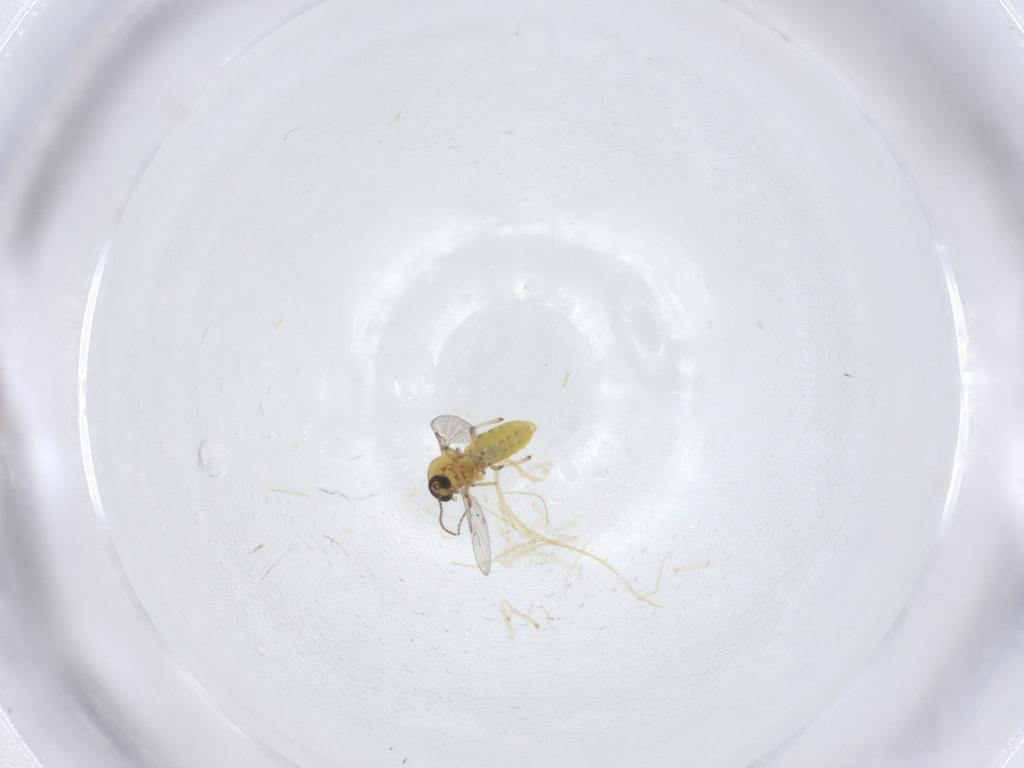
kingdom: Animalia
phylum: Arthropoda
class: Insecta
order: Diptera
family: Ceratopogonidae
